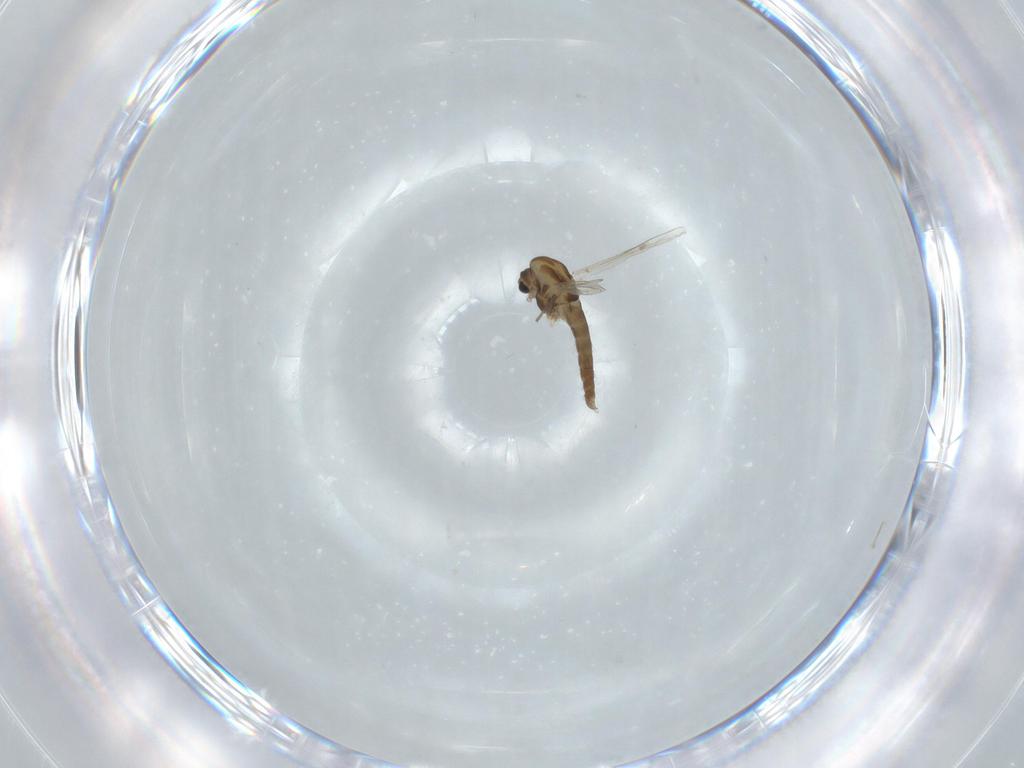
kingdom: Animalia
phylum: Arthropoda
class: Insecta
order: Diptera
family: Chironomidae
